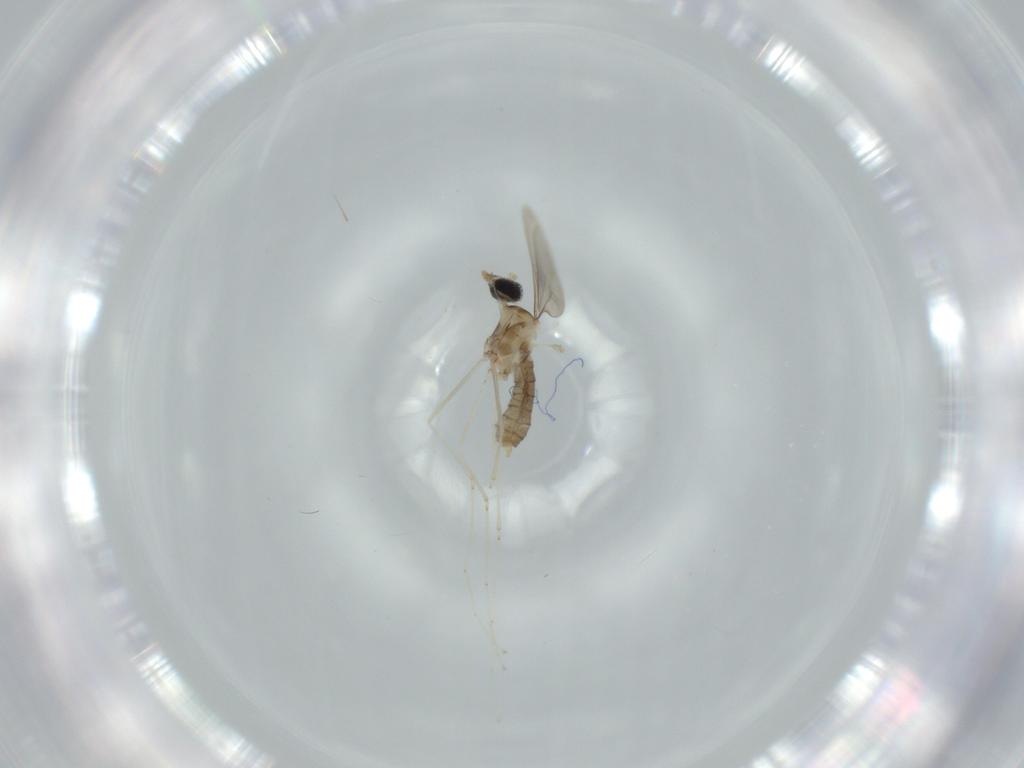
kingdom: Animalia
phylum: Arthropoda
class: Insecta
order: Diptera
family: Cecidomyiidae
